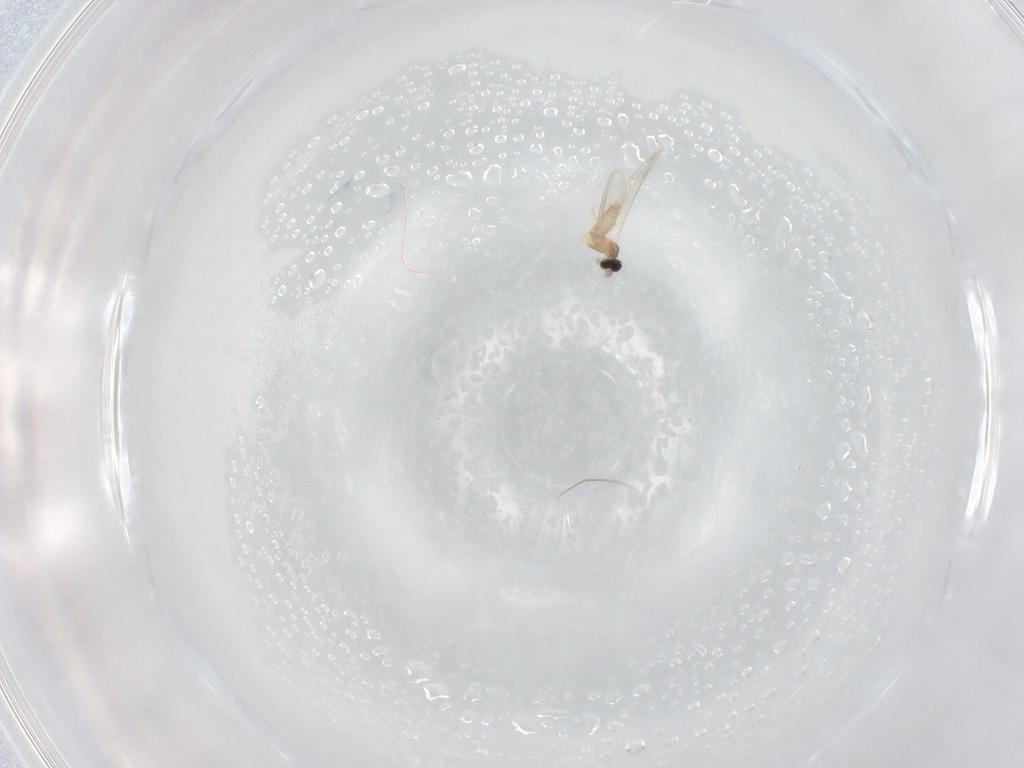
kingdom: Animalia
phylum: Arthropoda
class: Insecta
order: Diptera
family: Cecidomyiidae
